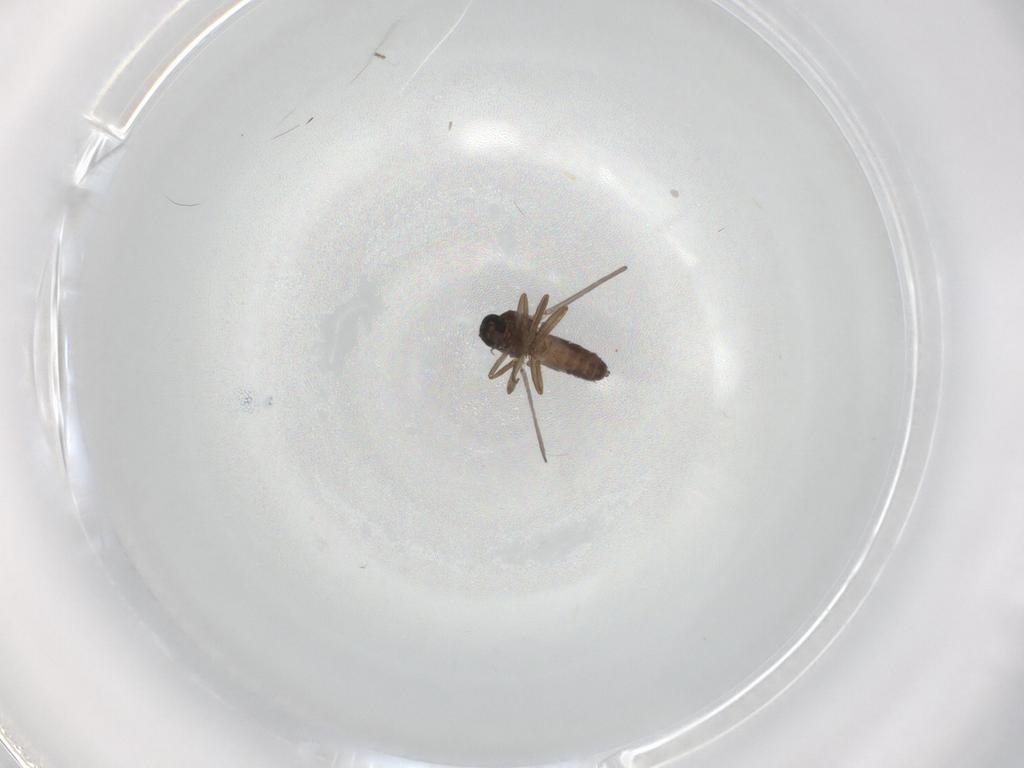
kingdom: Animalia
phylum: Arthropoda
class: Insecta
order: Diptera
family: Ceratopogonidae
